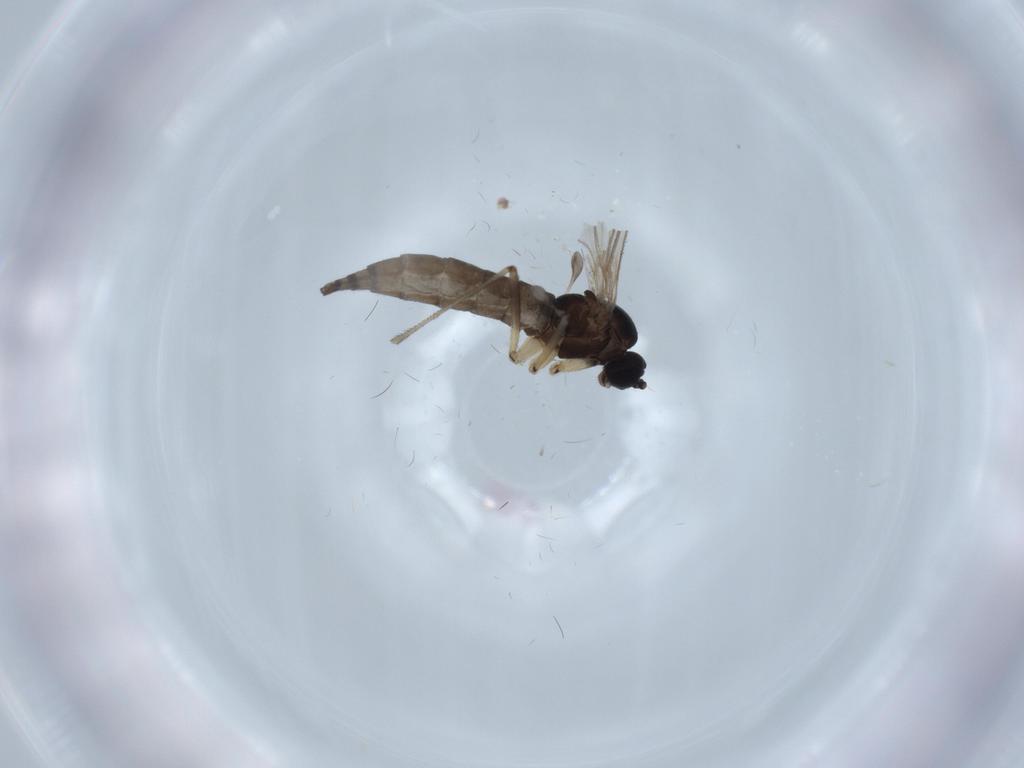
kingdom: Animalia
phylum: Arthropoda
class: Insecta
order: Diptera
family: Sciaridae
